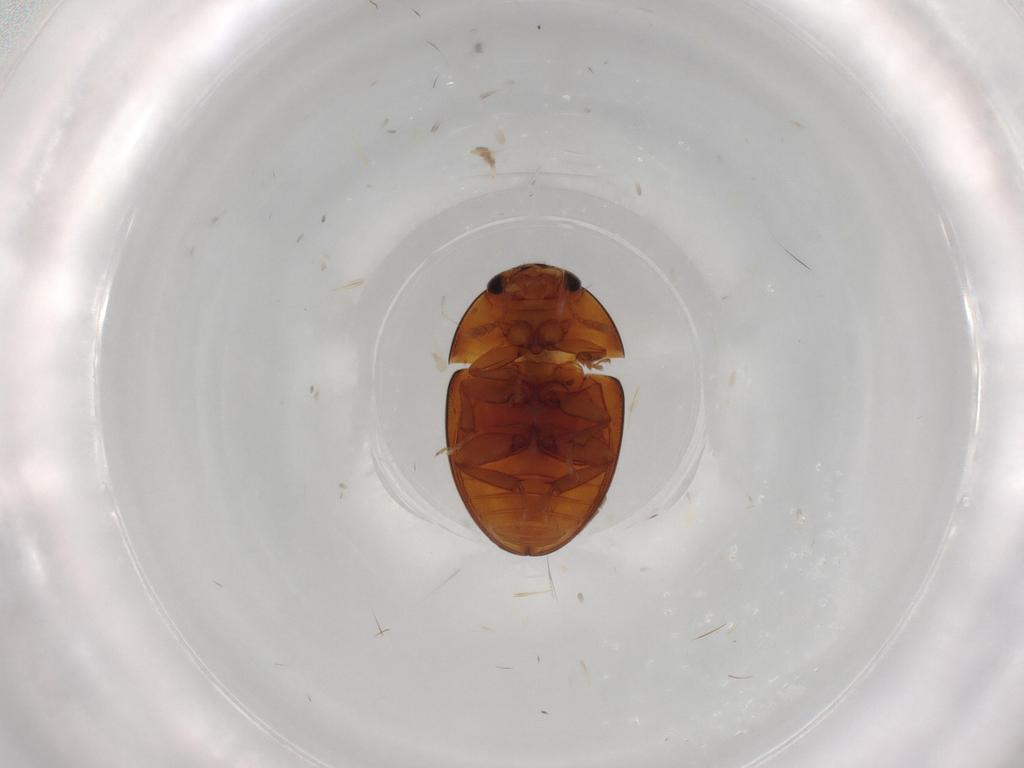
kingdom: Animalia
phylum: Arthropoda
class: Insecta
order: Coleoptera
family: Phalacridae
